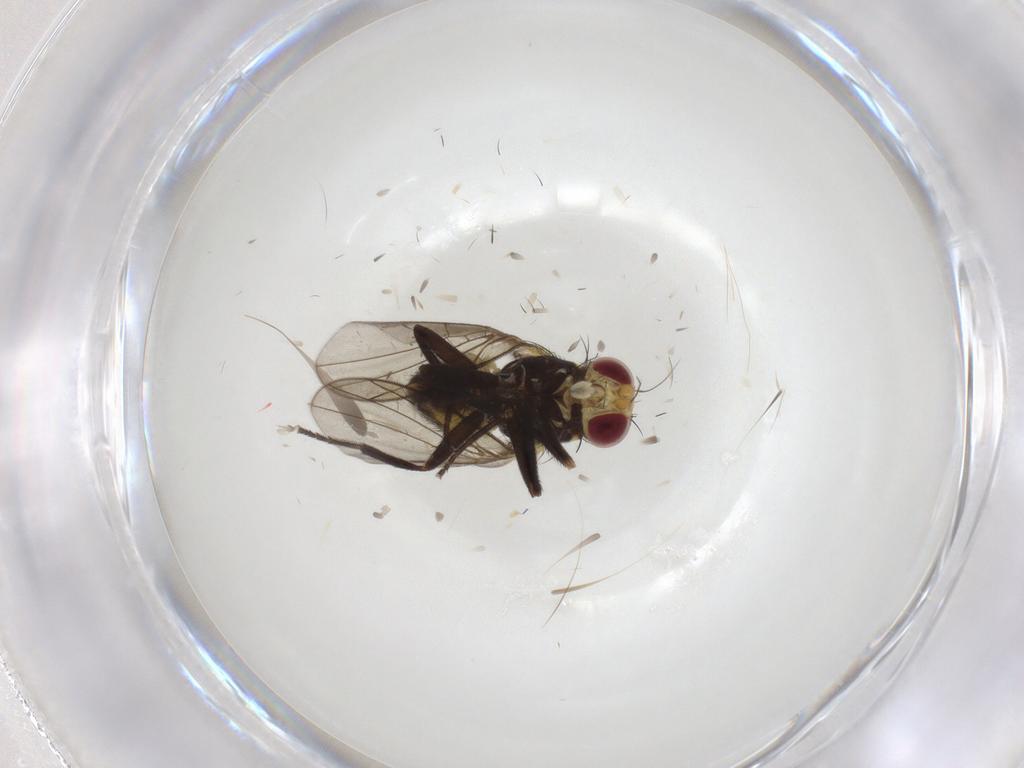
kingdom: Animalia
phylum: Arthropoda
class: Insecta
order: Diptera
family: Agromyzidae
